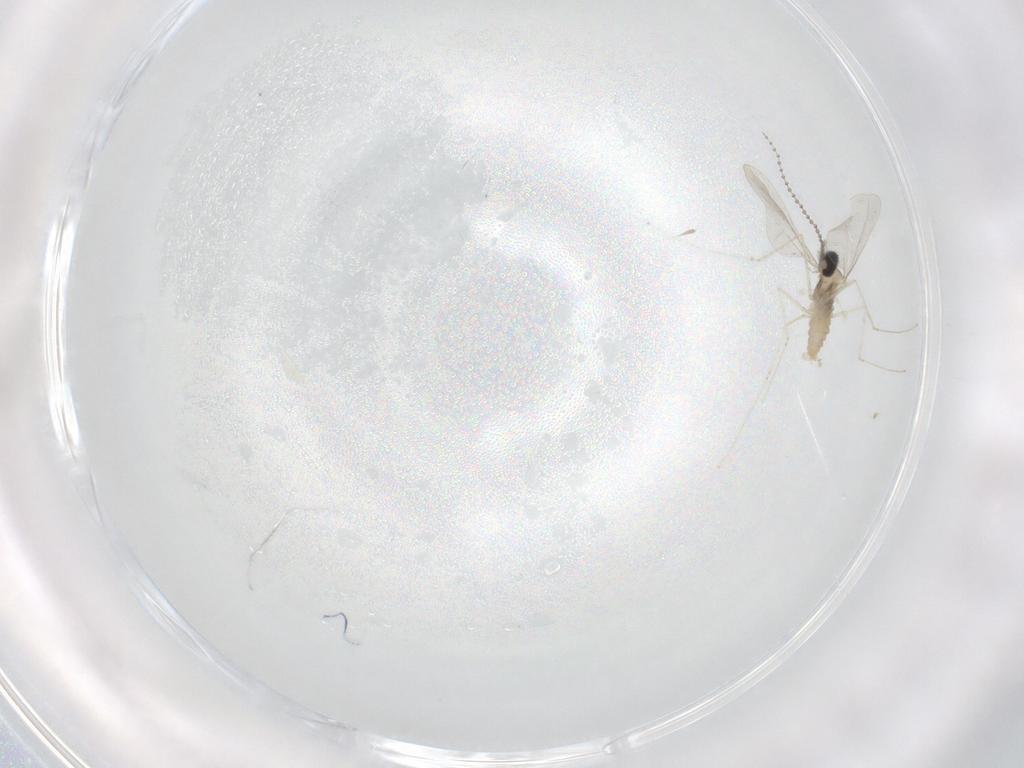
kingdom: Animalia
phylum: Arthropoda
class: Insecta
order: Diptera
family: Cecidomyiidae
